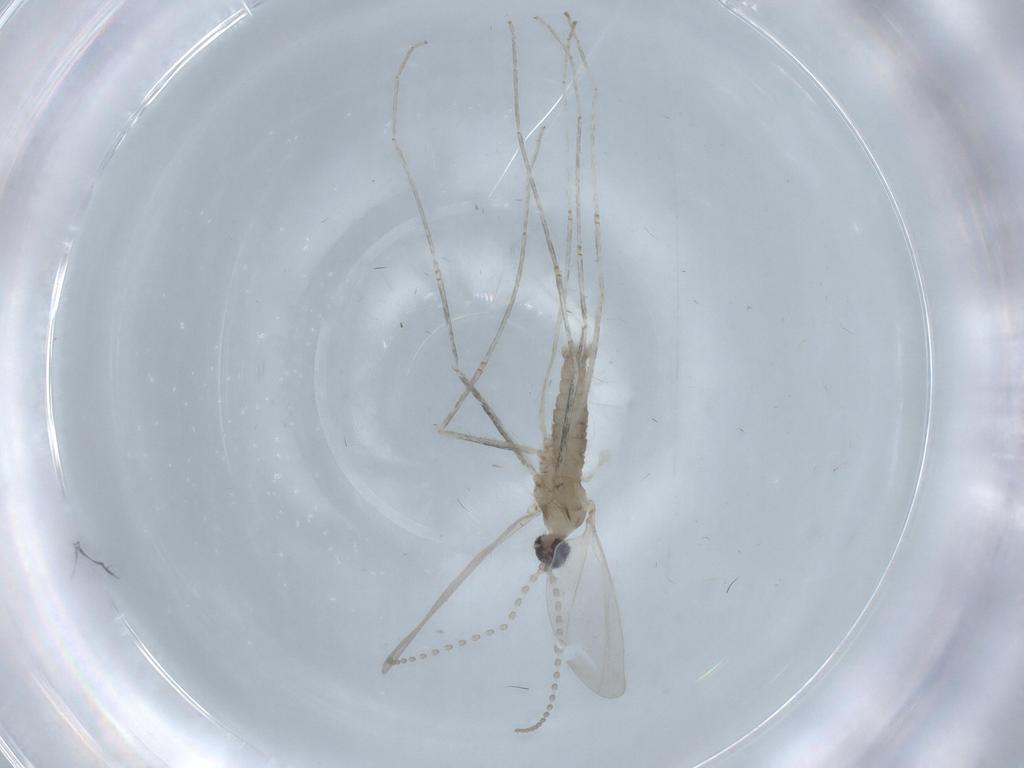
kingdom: Animalia
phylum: Arthropoda
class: Insecta
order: Diptera
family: Cecidomyiidae
